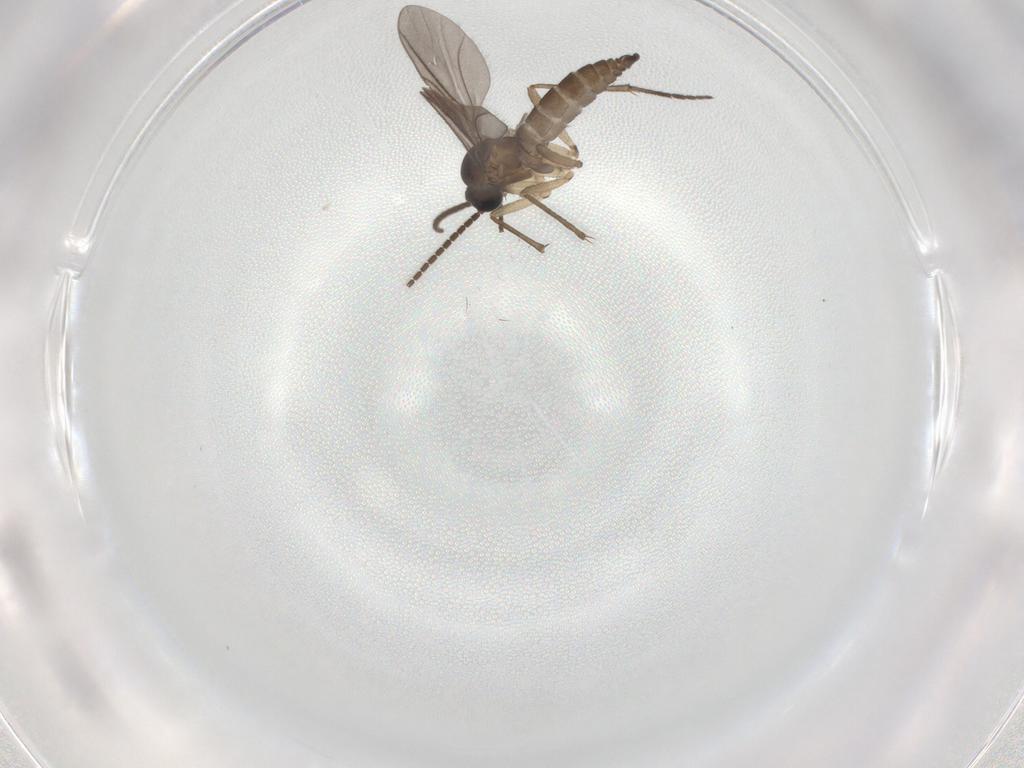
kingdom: Animalia
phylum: Arthropoda
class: Insecta
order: Diptera
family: Sciaridae
